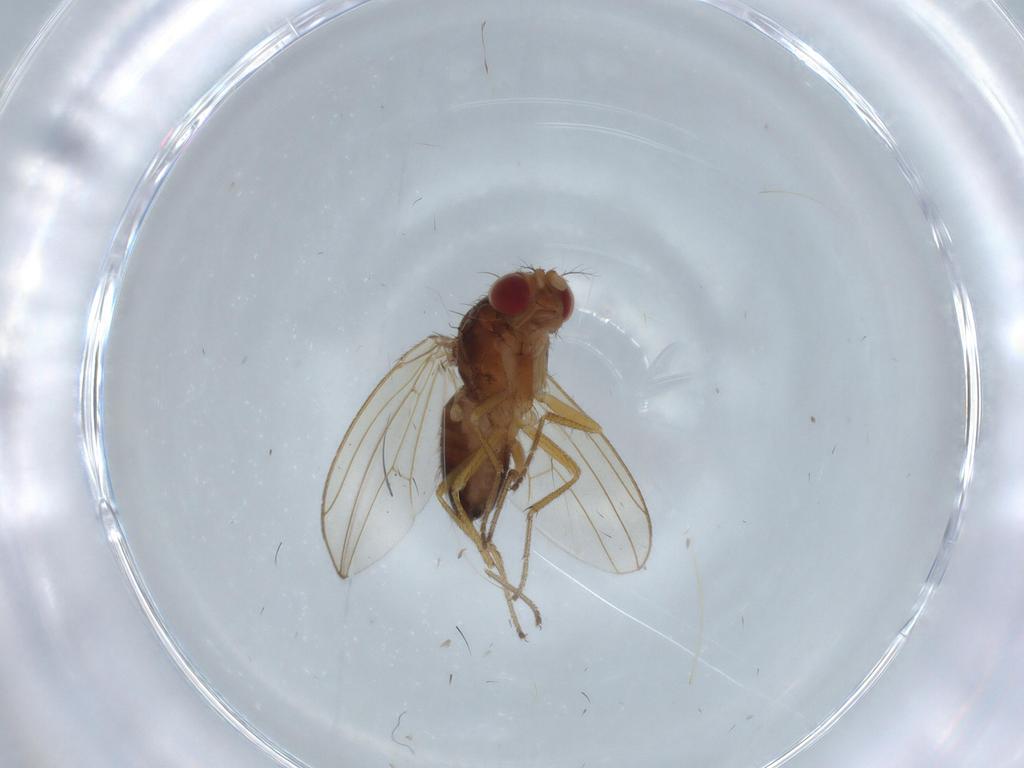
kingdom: Animalia
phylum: Arthropoda
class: Insecta
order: Diptera
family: Drosophilidae
